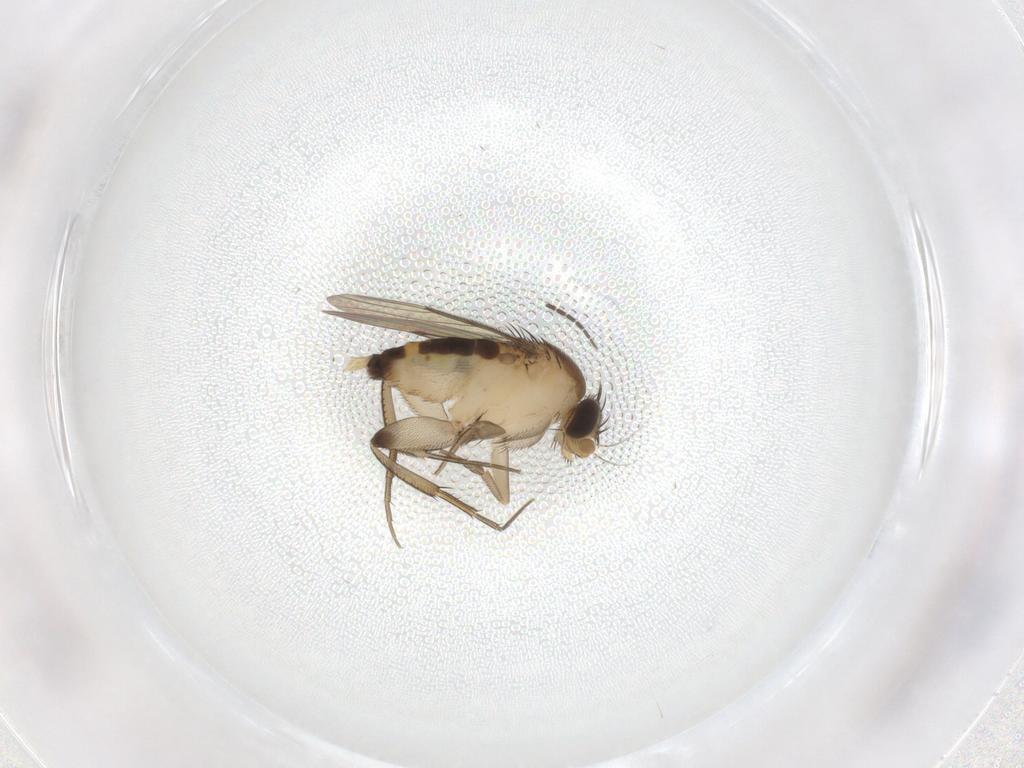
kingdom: Animalia
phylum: Arthropoda
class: Insecta
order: Diptera
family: Phoridae
